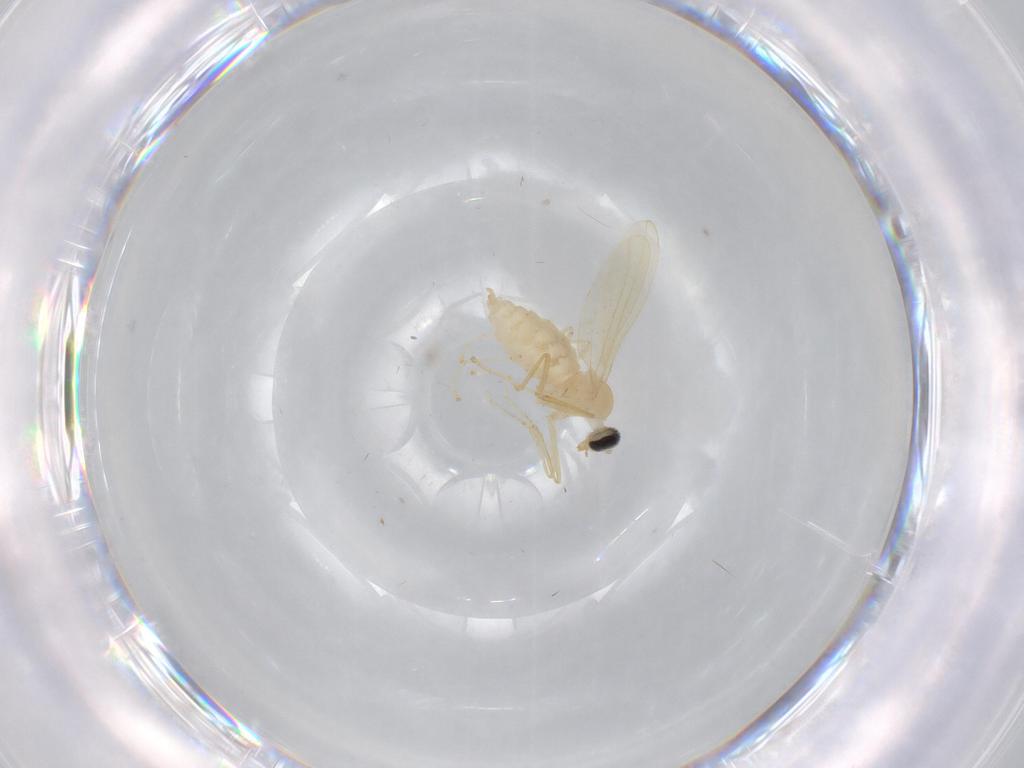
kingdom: Animalia
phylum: Arthropoda
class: Insecta
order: Diptera
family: Cecidomyiidae
